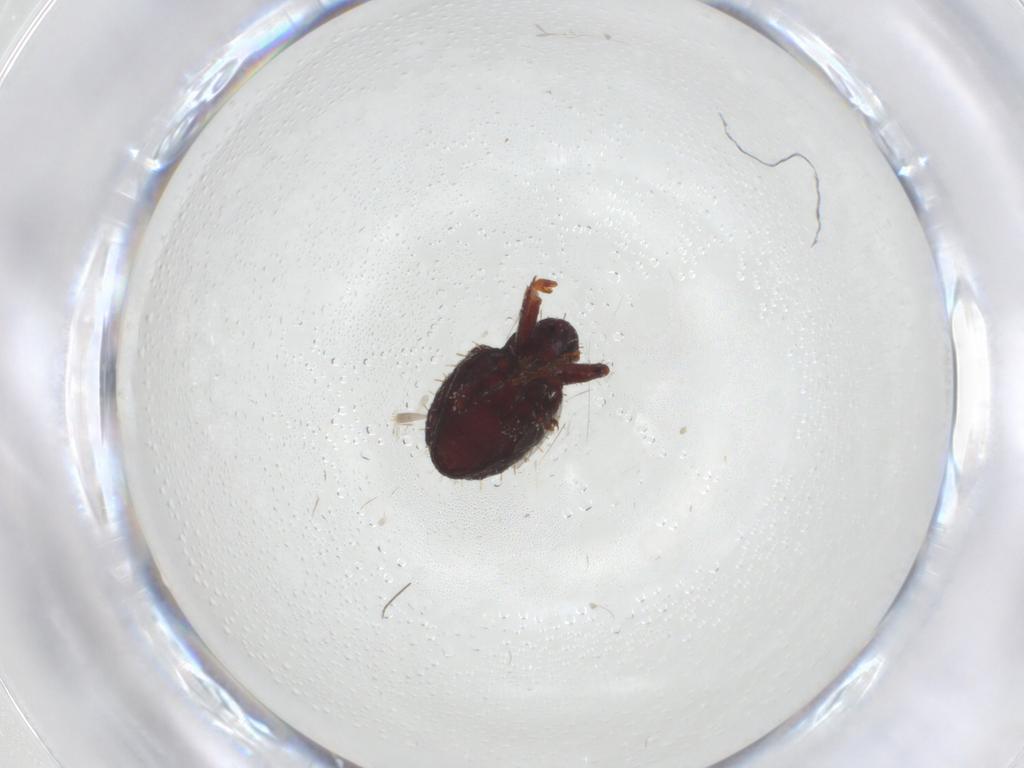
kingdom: Animalia
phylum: Arthropoda
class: Insecta
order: Coleoptera
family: Curculionidae
